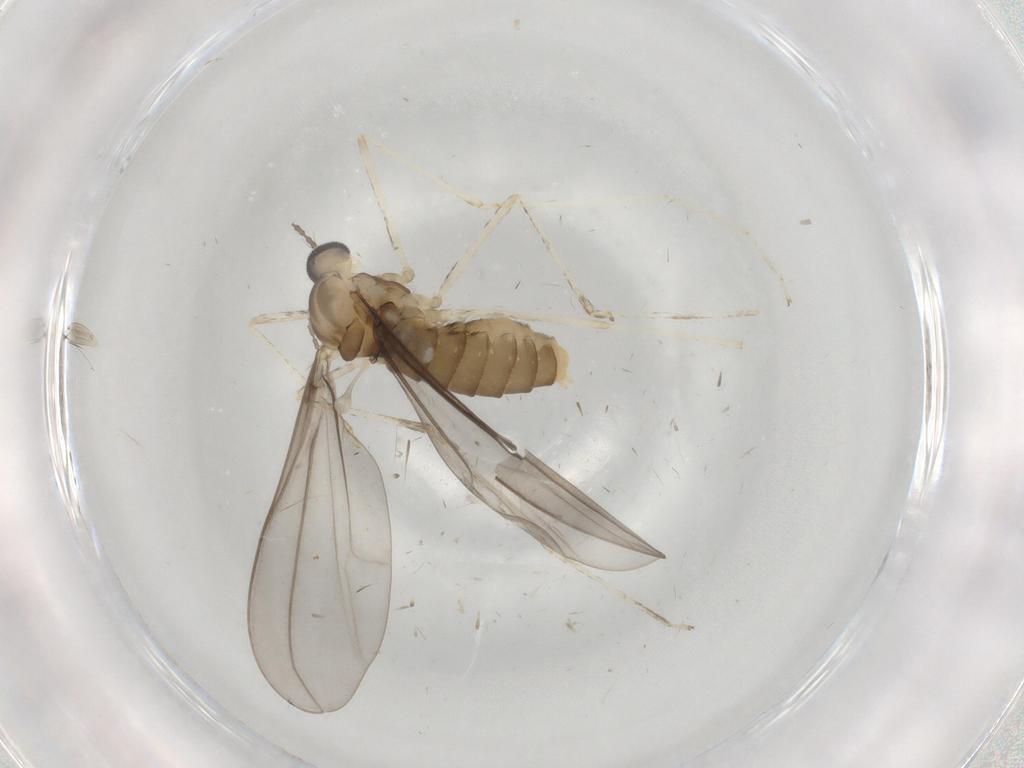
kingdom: Animalia
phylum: Arthropoda
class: Insecta
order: Diptera
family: Cecidomyiidae
